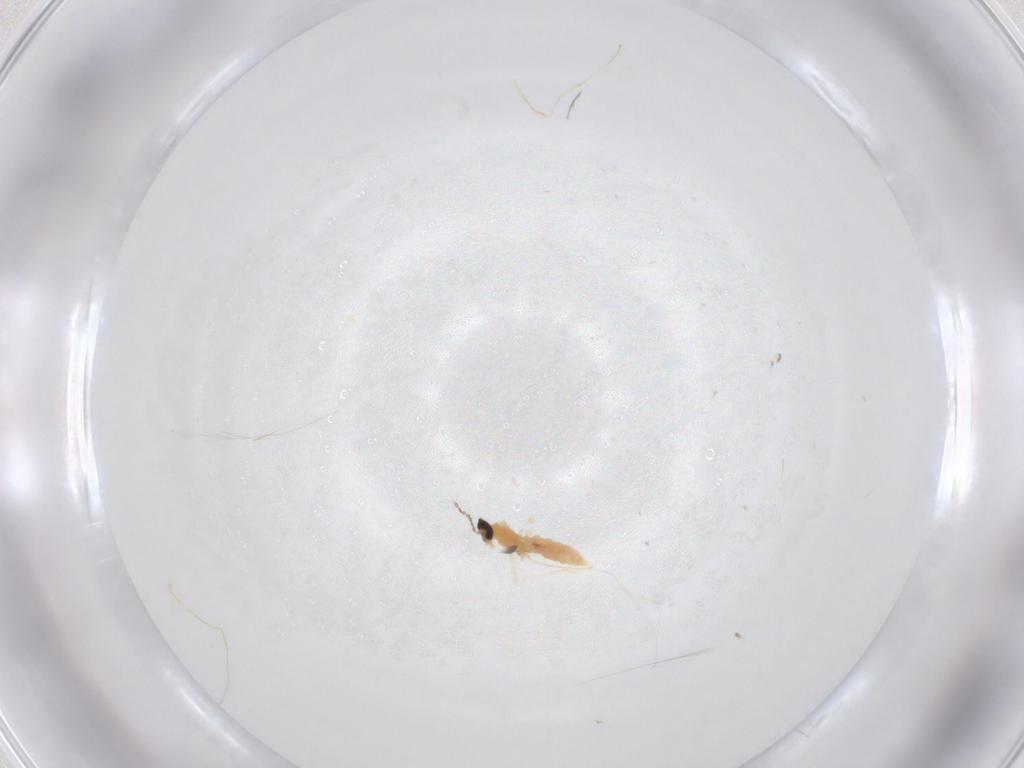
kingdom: Animalia
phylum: Arthropoda
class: Insecta
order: Diptera
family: Cecidomyiidae
